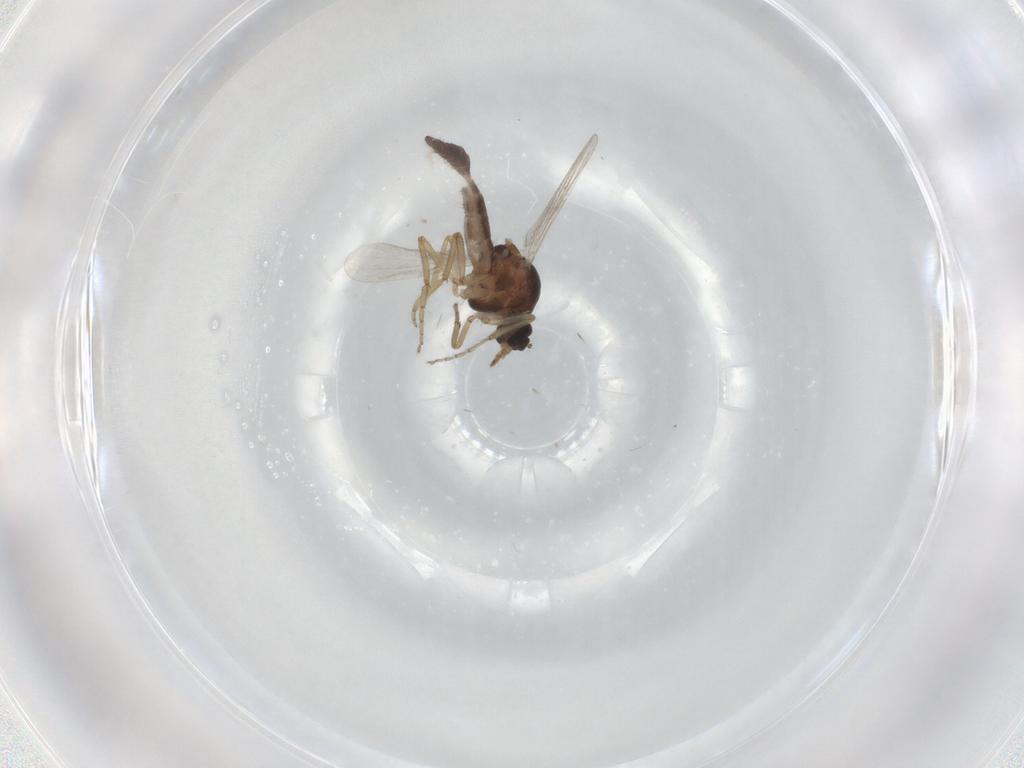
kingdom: Animalia
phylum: Arthropoda
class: Insecta
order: Diptera
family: Ceratopogonidae
